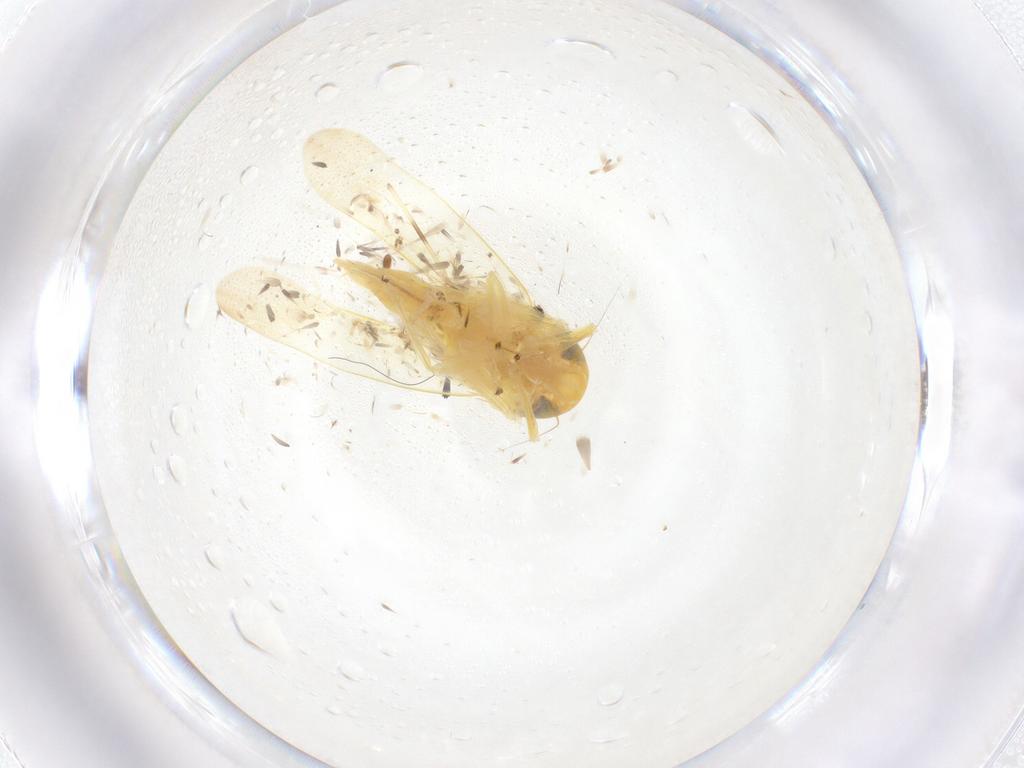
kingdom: Animalia
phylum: Arthropoda
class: Insecta
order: Hemiptera
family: Cicadellidae
